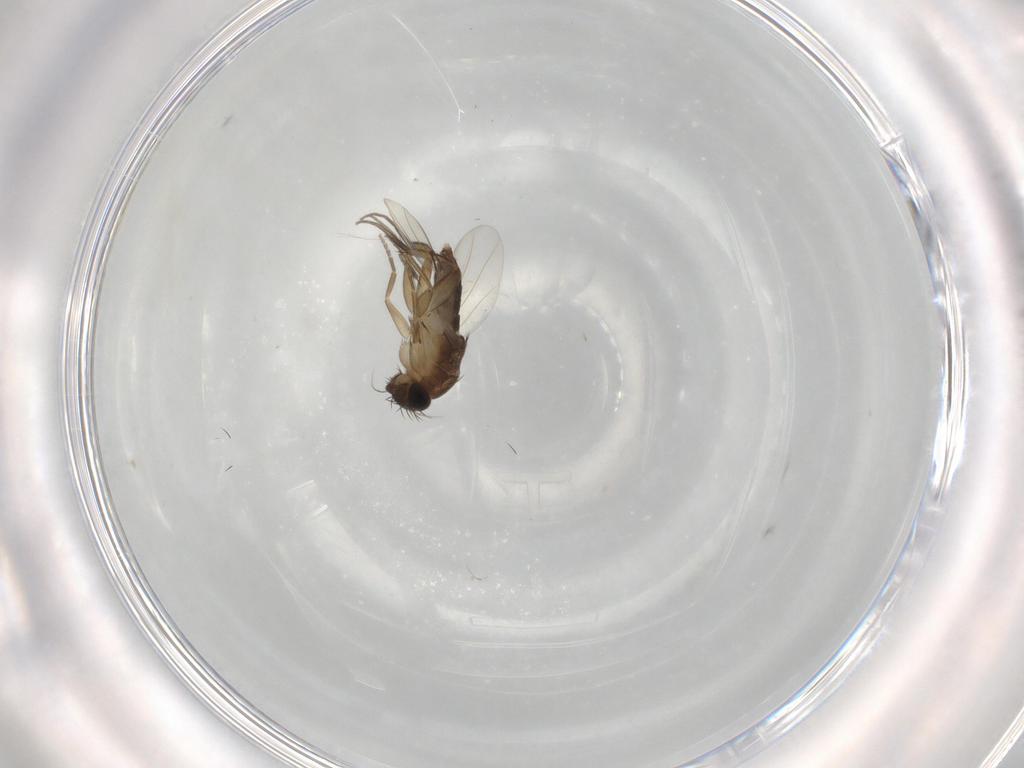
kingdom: Animalia
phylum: Arthropoda
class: Insecta
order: Diptera
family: Phoridae
